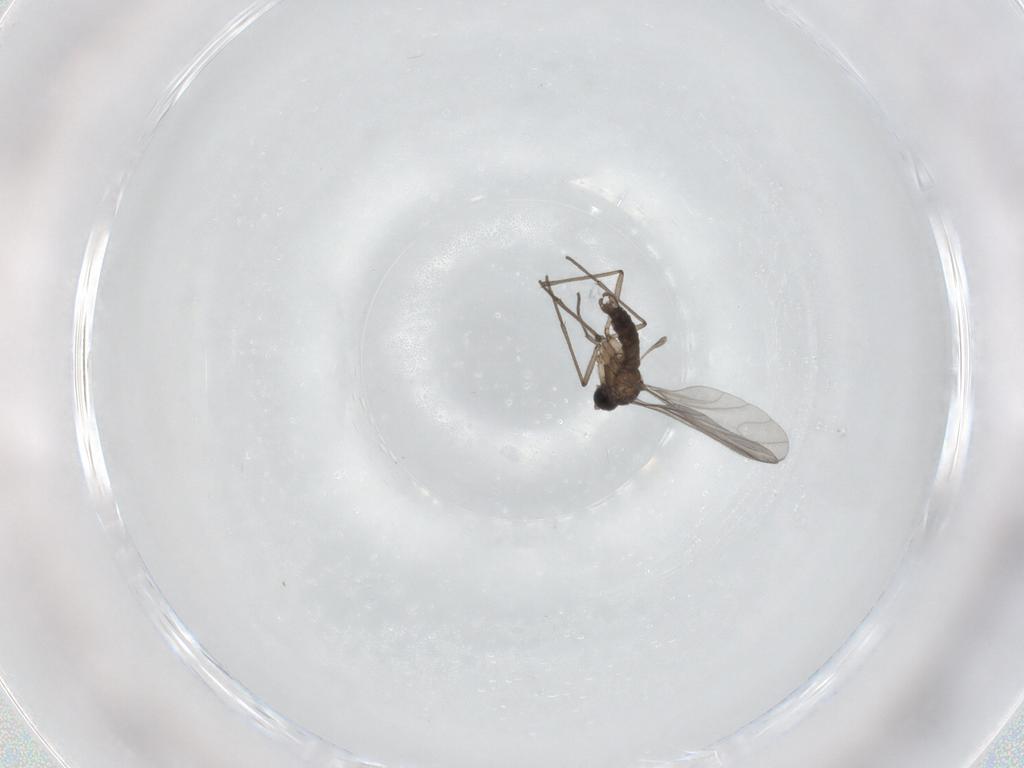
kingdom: Animalia
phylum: Arthropoda
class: Insecta
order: Diptera
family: Sciaridae
